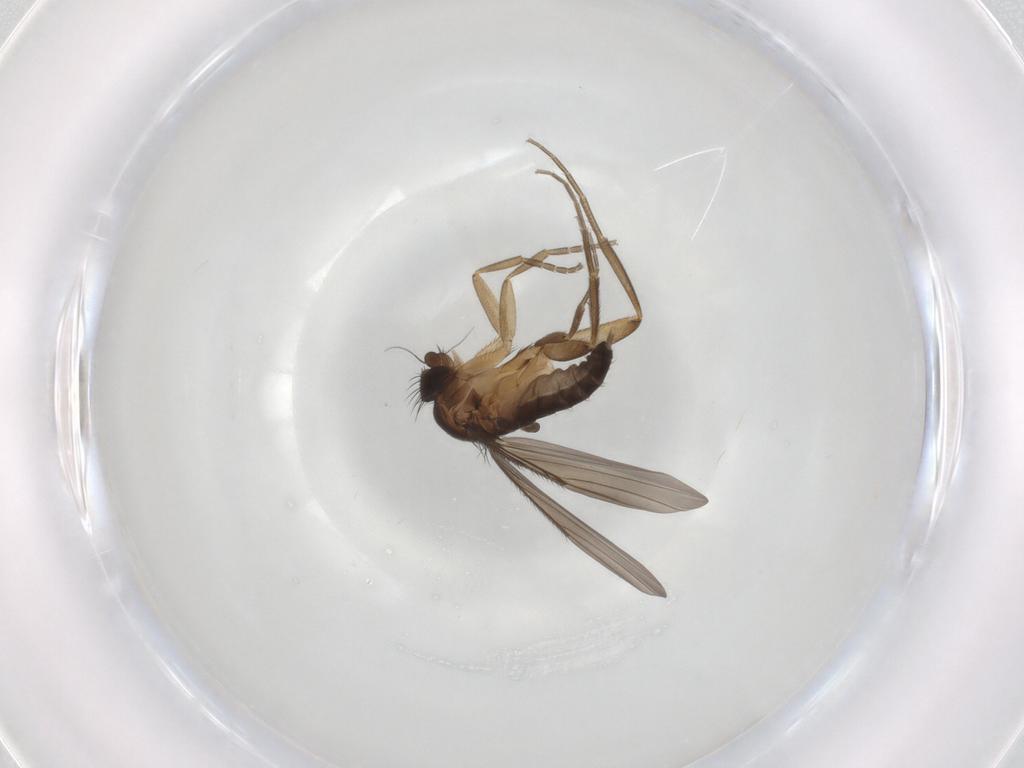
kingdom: Animalia
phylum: Arthropoda
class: Insecta
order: Diptera
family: Phoridae
